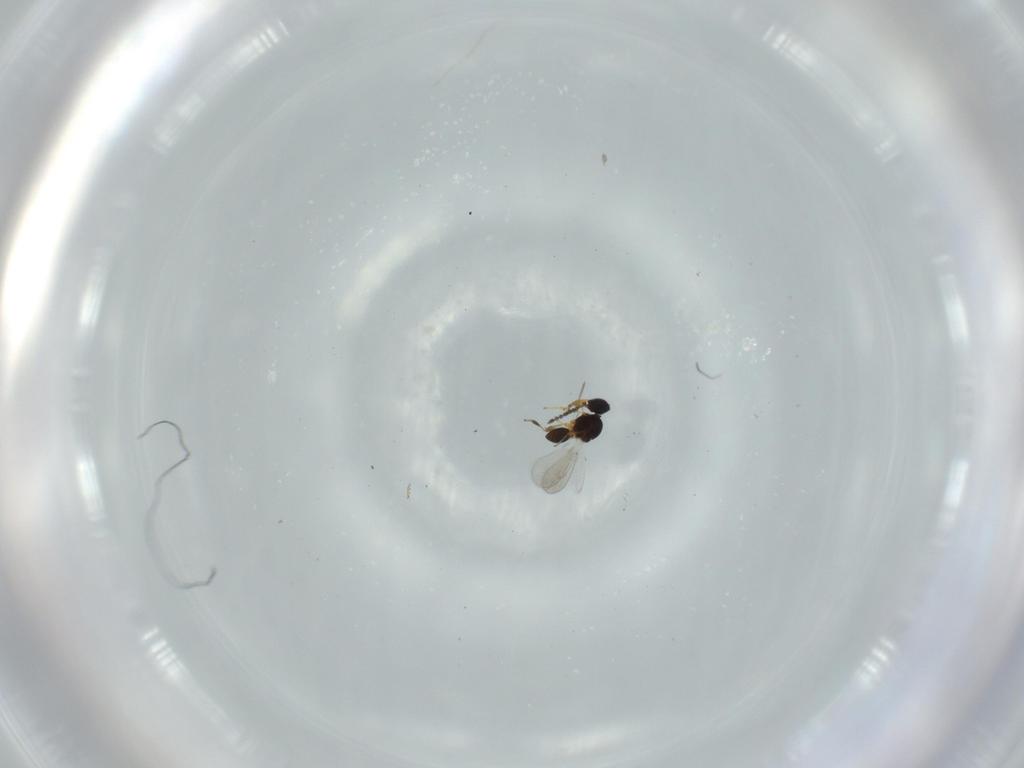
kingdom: Animalia
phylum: Arthropoda
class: Insecta
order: Hymenoptera
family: Platygastridae
